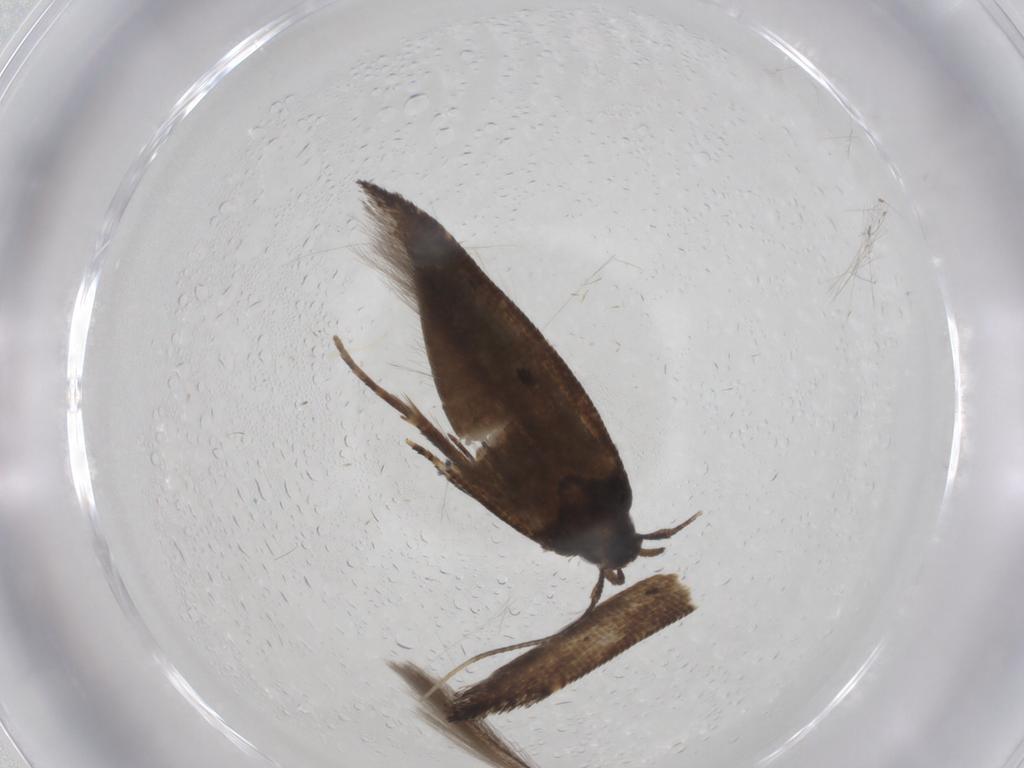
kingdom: Animalia
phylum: Arthropoda
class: Insecta
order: Lepidoptera
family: Cosmopterigidae
